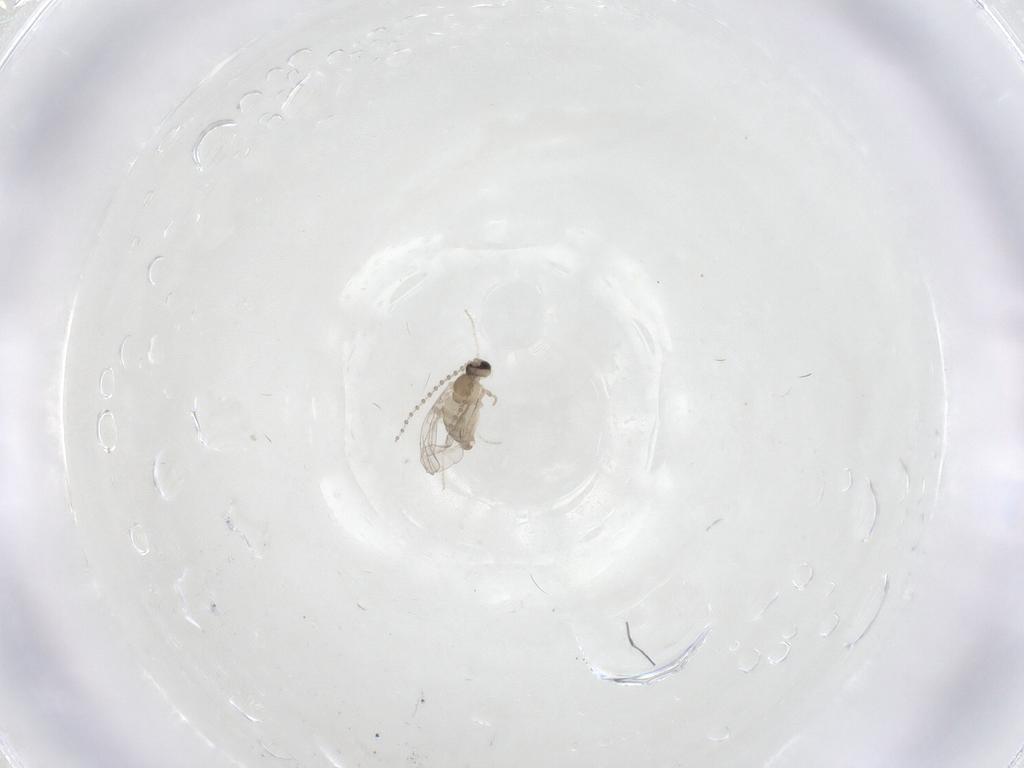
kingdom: Animalia
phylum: Arthropoda
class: Insecta
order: Diptera
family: Cecidomyiidae
